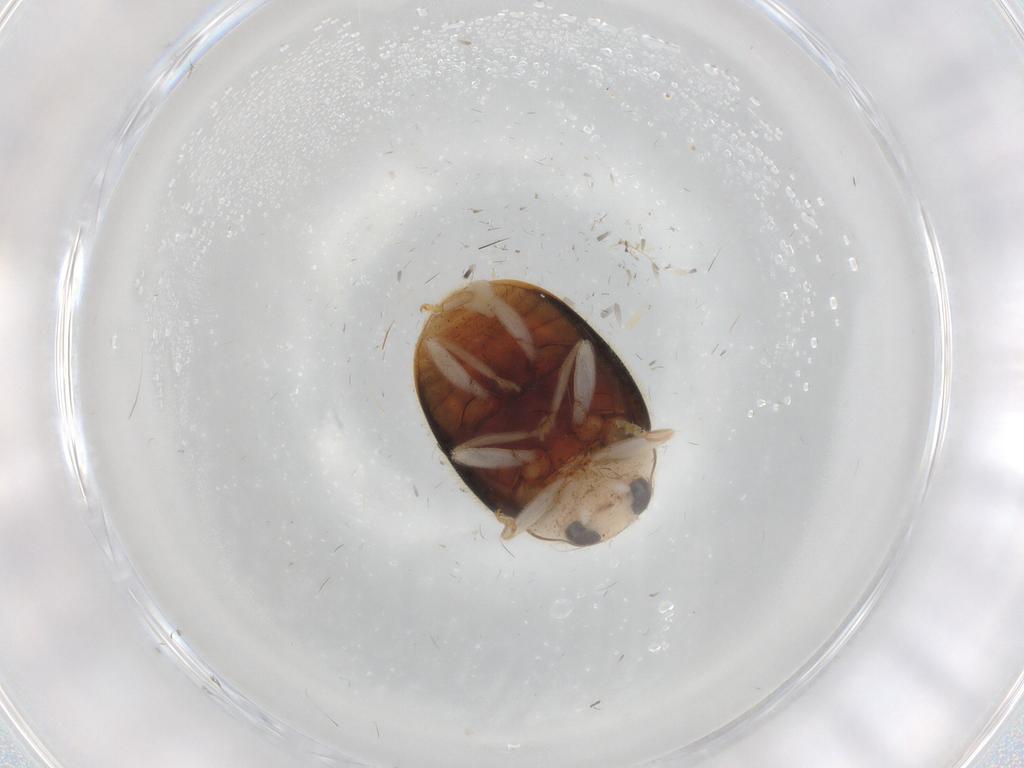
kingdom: Animalia
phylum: Arthropoda
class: Insecta
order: Coleoptera
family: Coccinellidae
